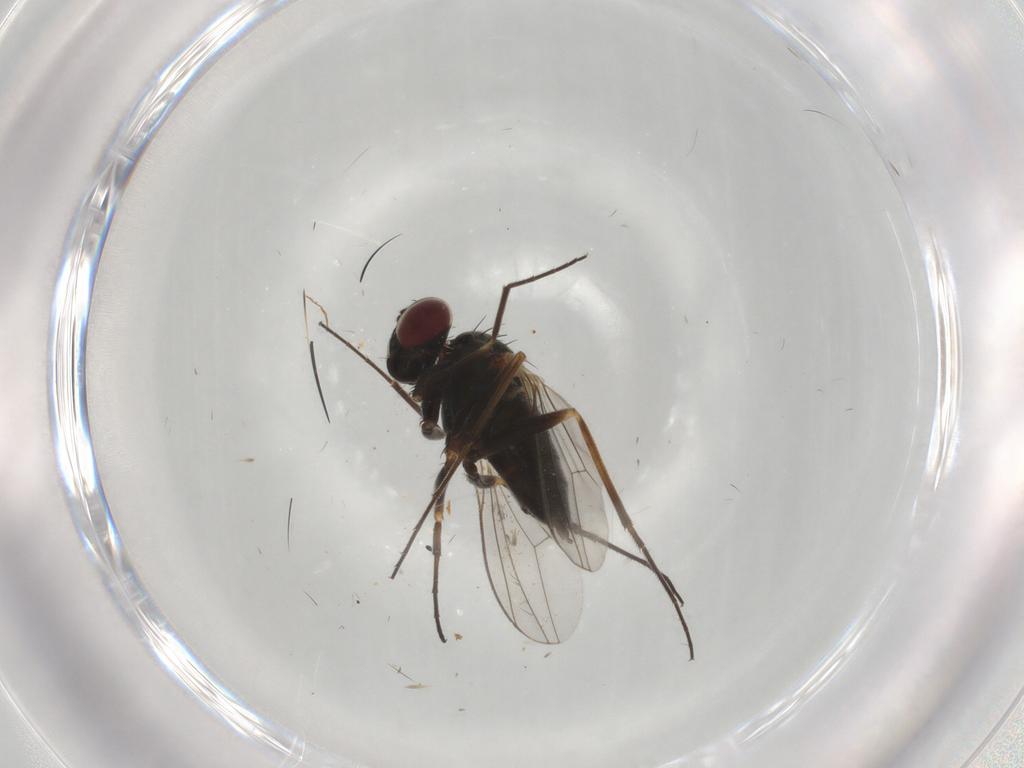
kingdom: Animalia
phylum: Arthropoda
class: Insecta
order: Diptera
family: Dolichopodidae
